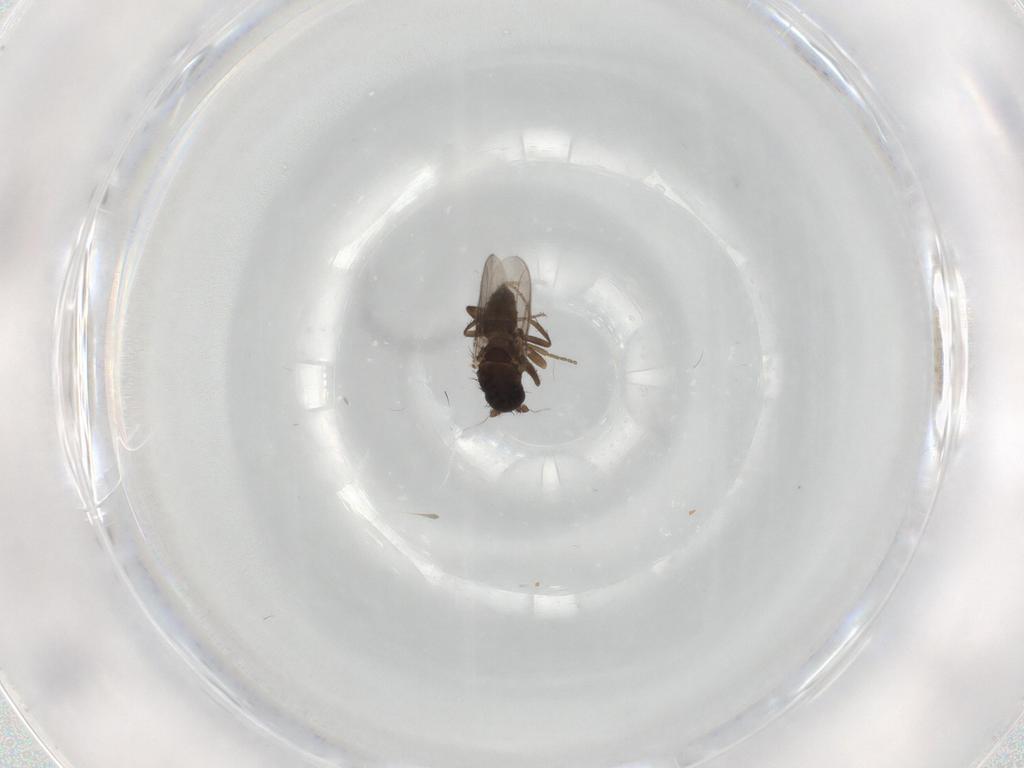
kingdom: Animalia
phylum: Arthropoda
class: Insecta
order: Diptera
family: Sphaeroceridae
